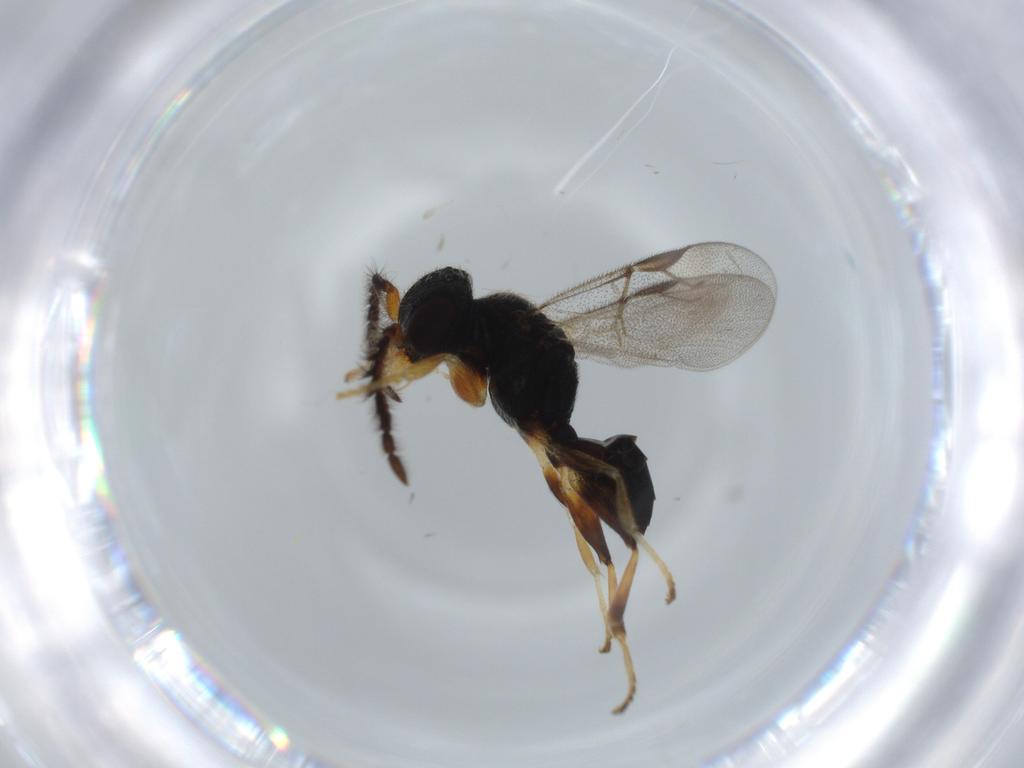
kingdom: Animalia
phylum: Arthropoda
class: Insecta
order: Hymenoptera
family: Dryinidae
